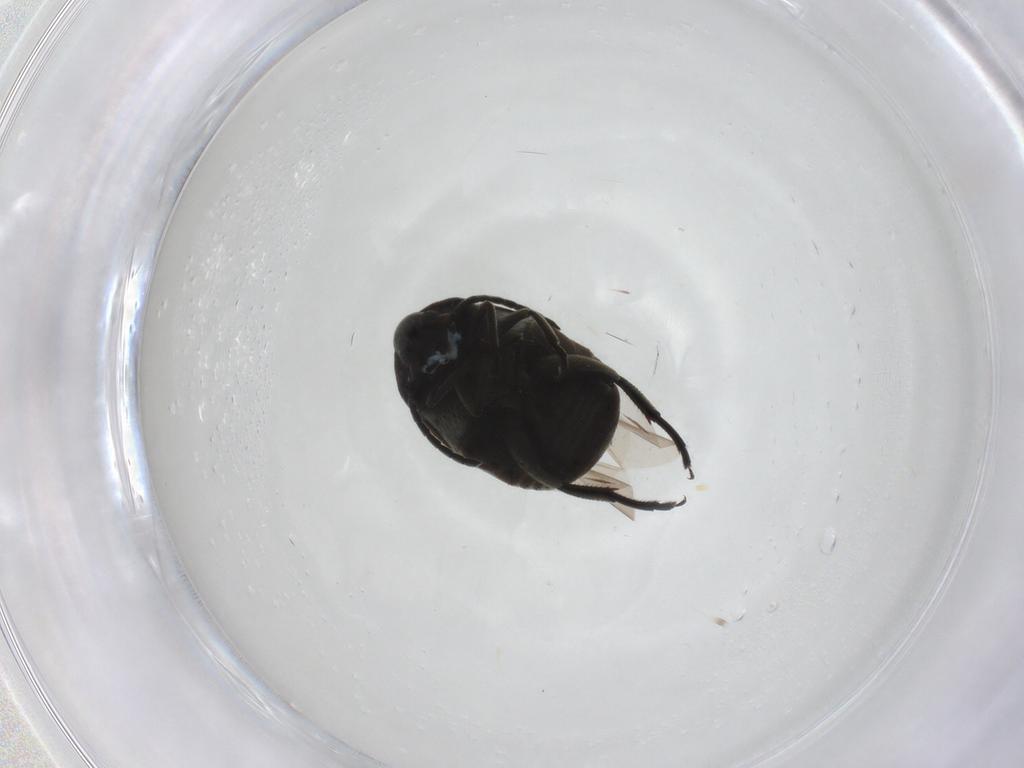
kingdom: Animalia
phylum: Arthropoda
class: Insecta
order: Coleoptera
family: Chrysomelidae
